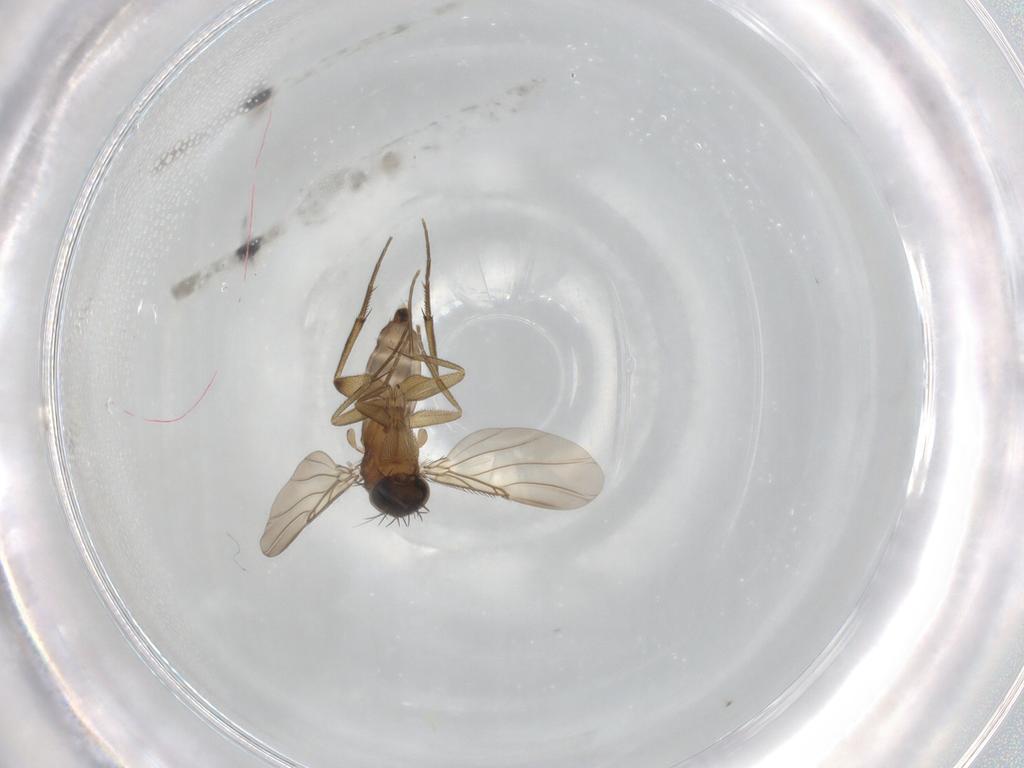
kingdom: Animalia
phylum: Arthropoda
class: Insecta
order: Diptera
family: Phoridae
